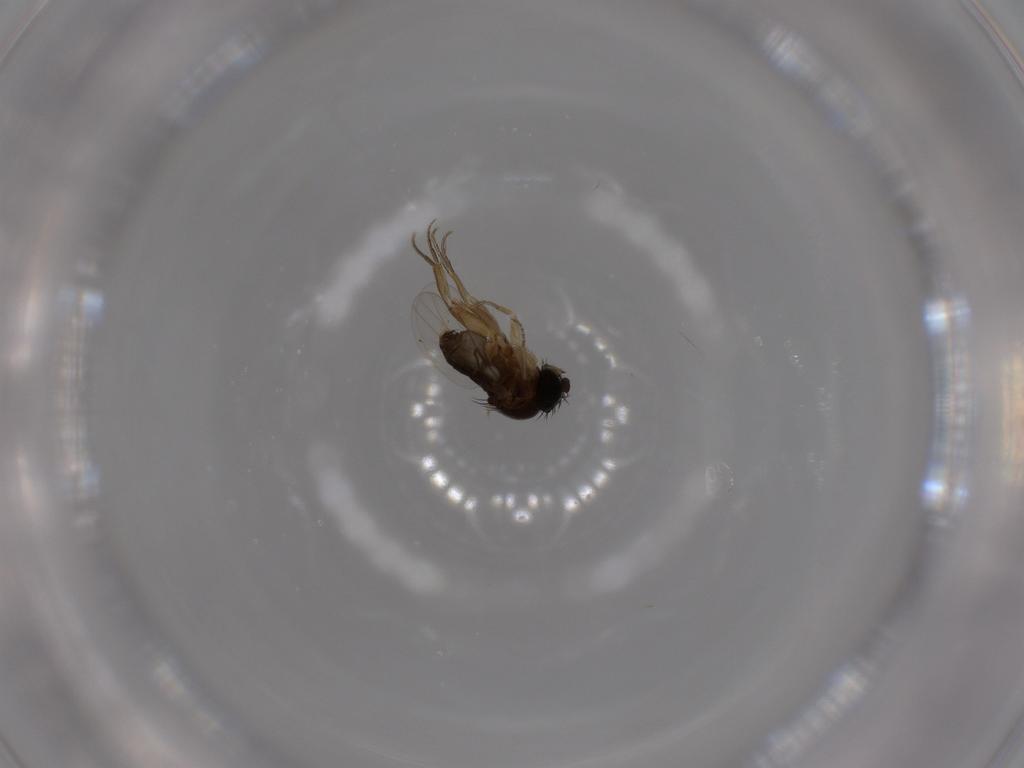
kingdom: Animalia
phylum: Arthropoda
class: Insecta
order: Diptera
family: Phoridae
